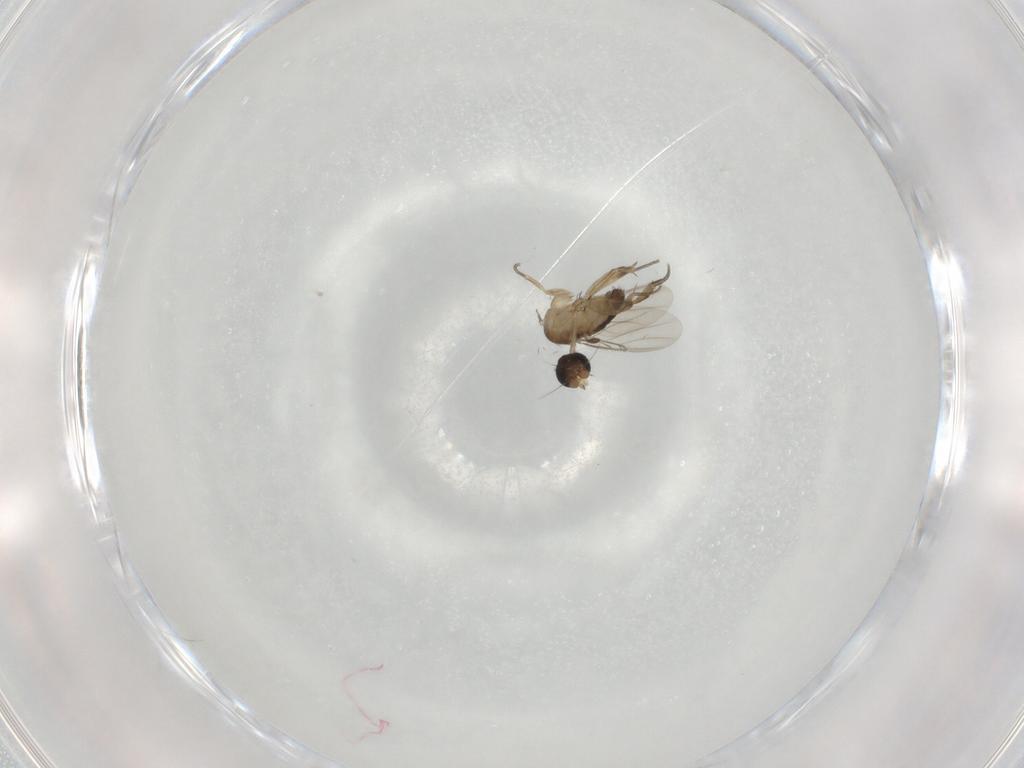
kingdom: Animalia
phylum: Arthropoda
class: Insecta
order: Diptera
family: Phoridae
